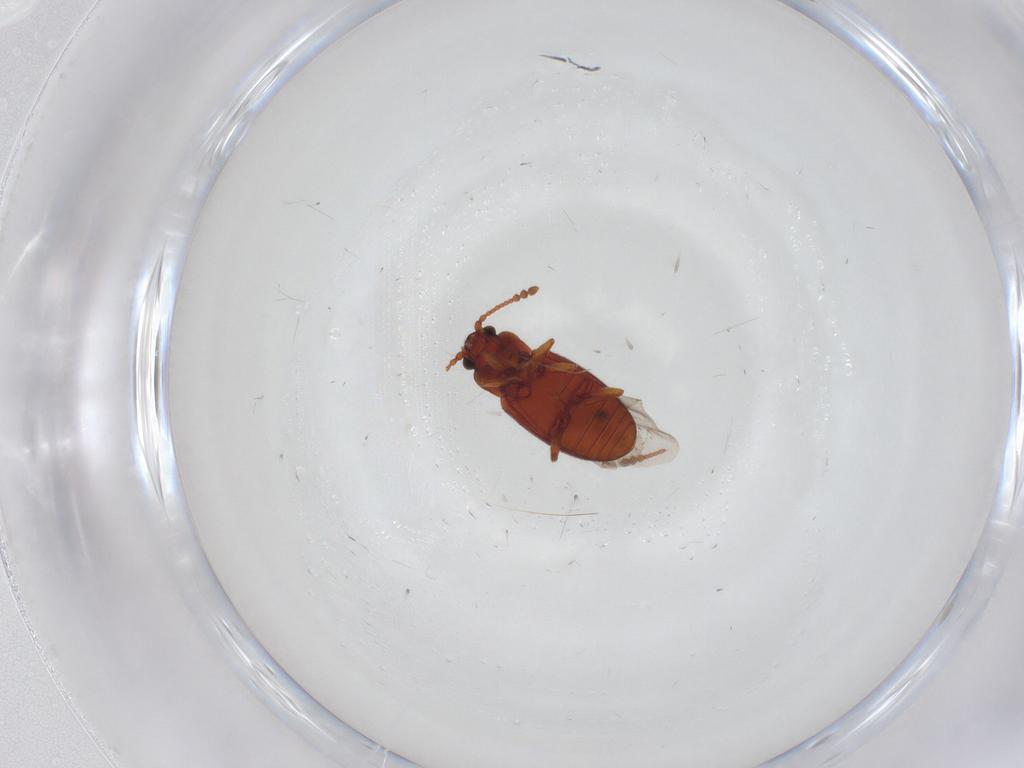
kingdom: Animalia
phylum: Arthropoda
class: Insecta
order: Coleoptera
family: Cryptophagidae
